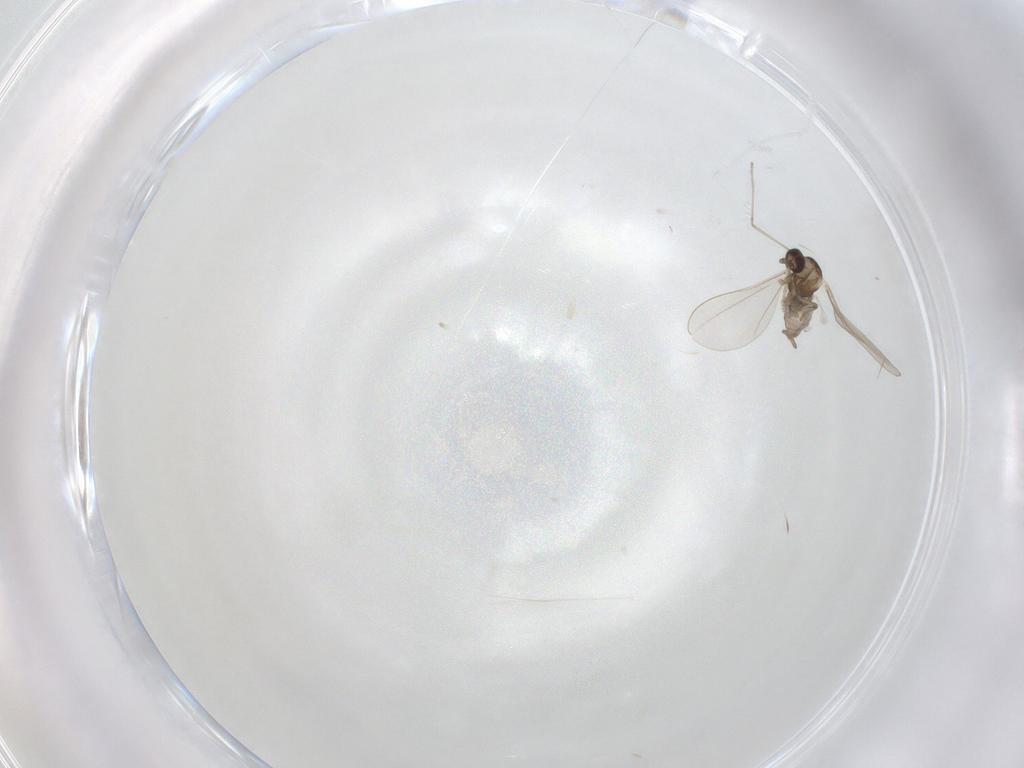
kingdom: Animalia
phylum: Arthropoda
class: Insecta
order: Diptera
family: Cecidomyiidae
